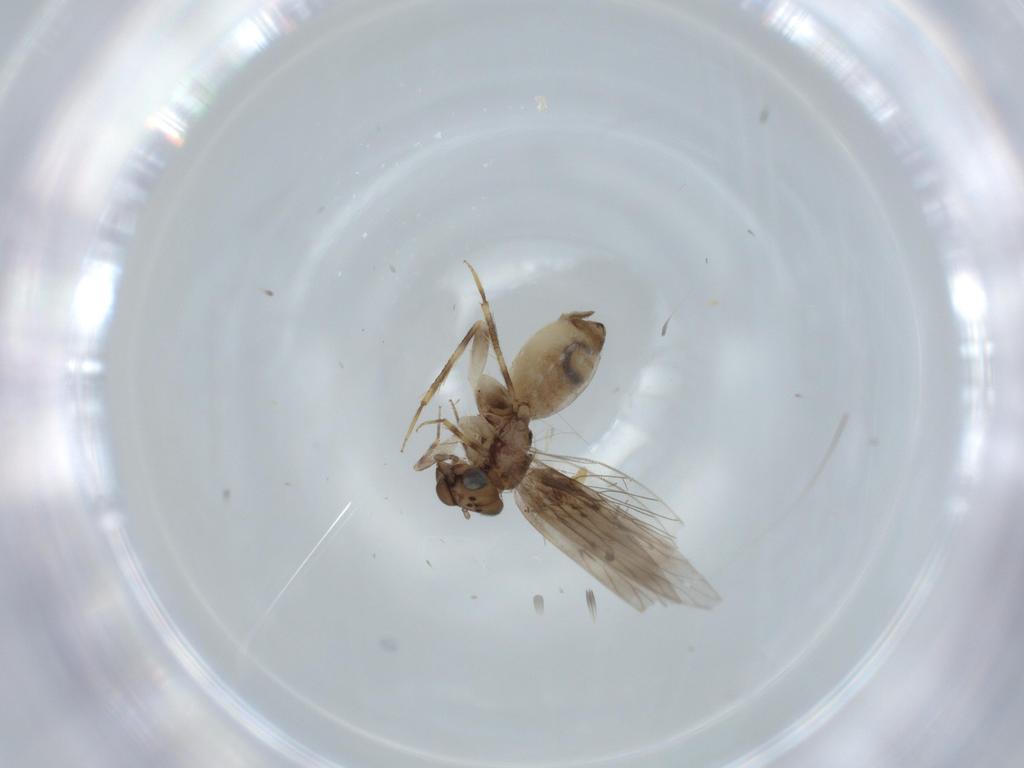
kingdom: Animalia
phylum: Arthropoda
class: Insecta
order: Psocodea
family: Lepidopsocidae
